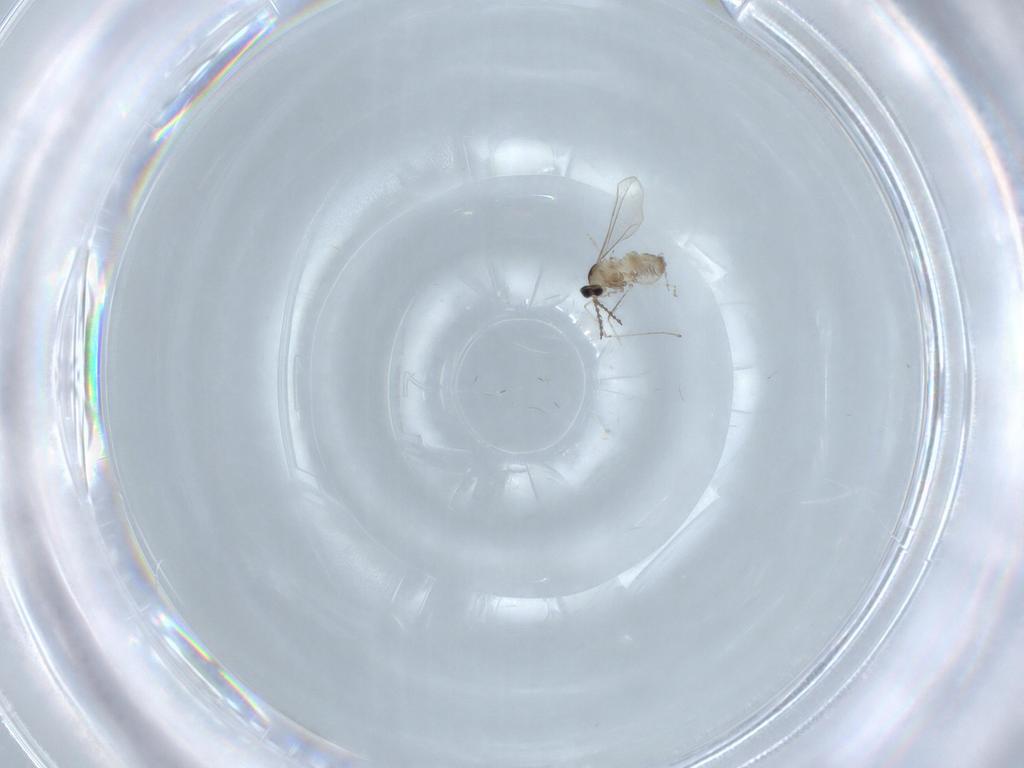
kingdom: Animalia
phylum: Arthropoda
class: Insecta
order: Diptera
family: Cecidomyiidae
